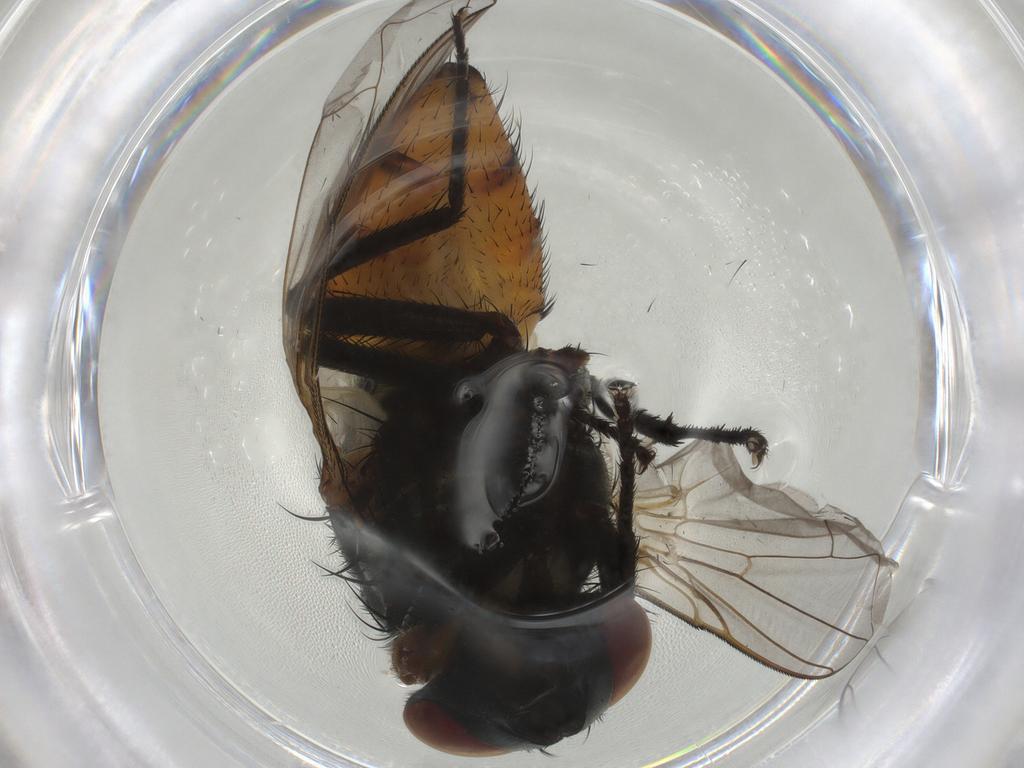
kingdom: Animalia
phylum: Arthropoda
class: Insecta
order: Diptera
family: Muscidae
